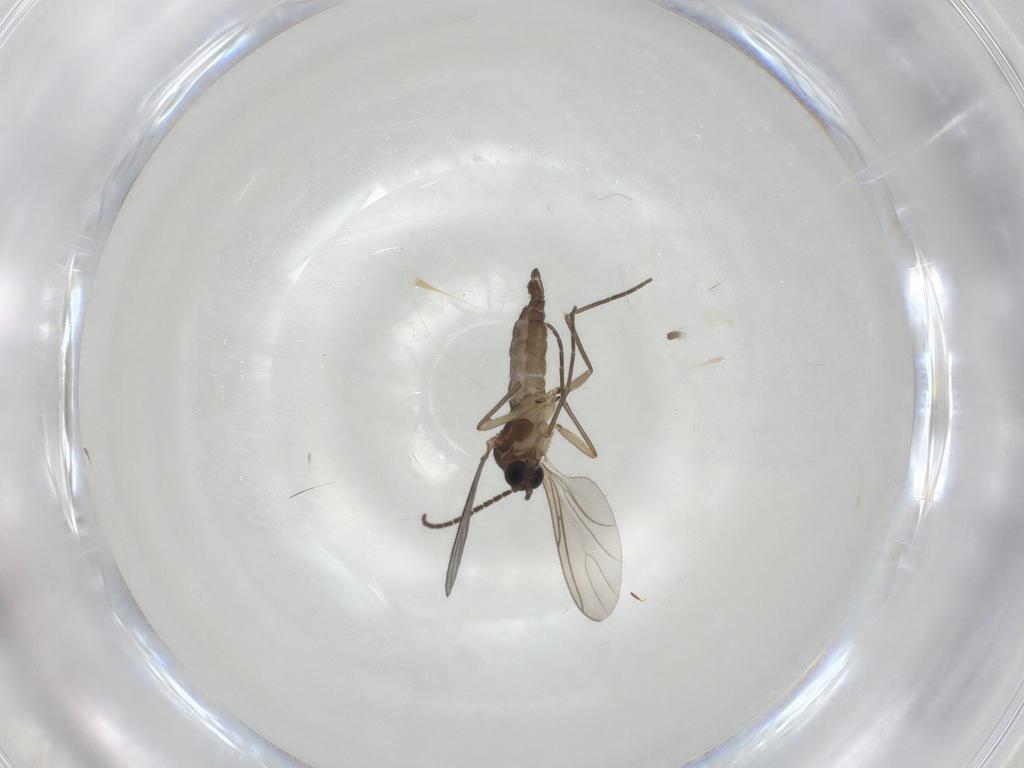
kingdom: Animalia
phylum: Arthropoda
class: Insecta
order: Diptera
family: Sciaridae
